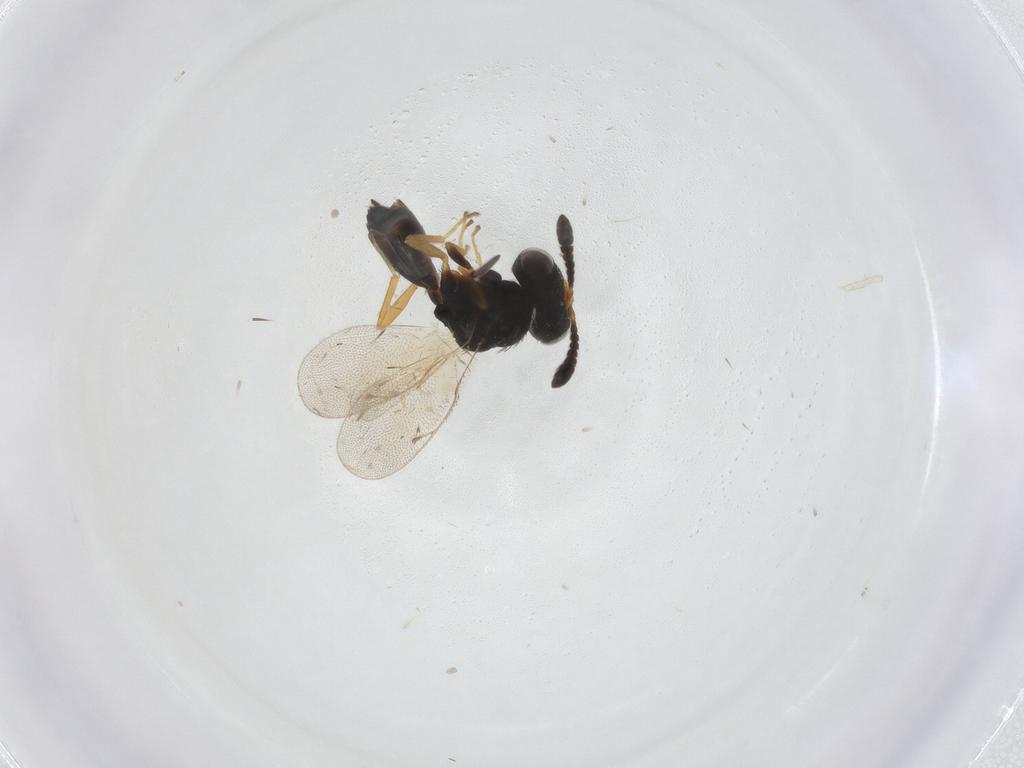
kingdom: Animalia
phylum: Arthropoda
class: Insecta
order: Hymenoptera
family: Pteromalidae
